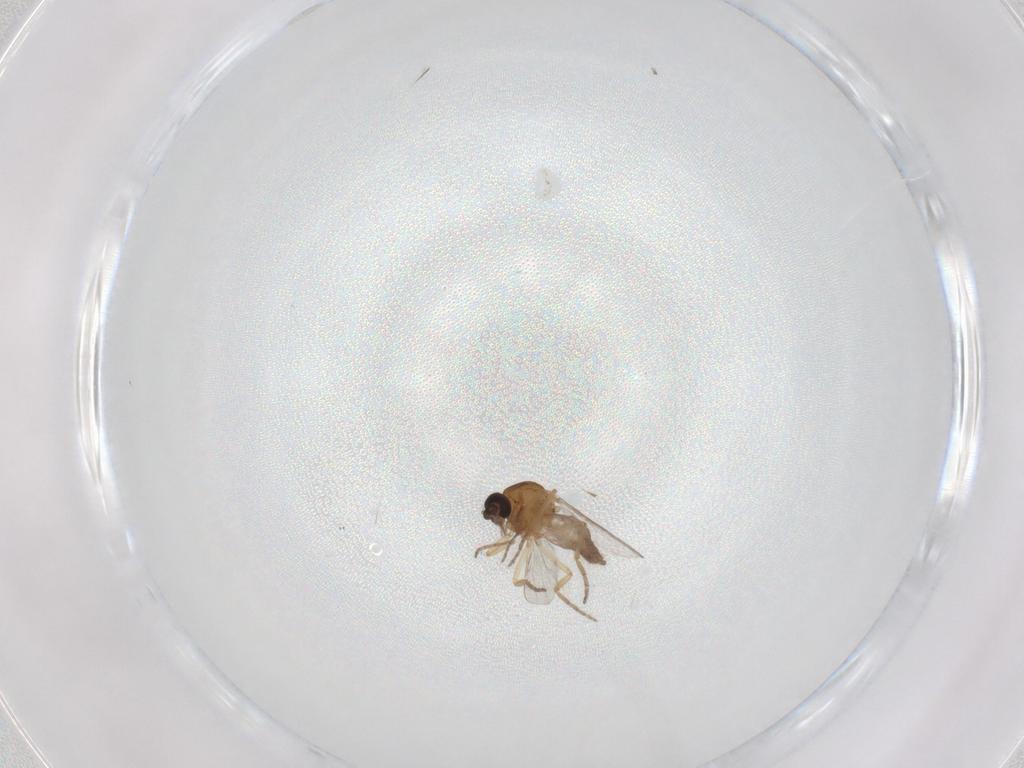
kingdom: Animalia
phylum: Arthropoda
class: Insecta
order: Diptera
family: Ceratopogonidae
